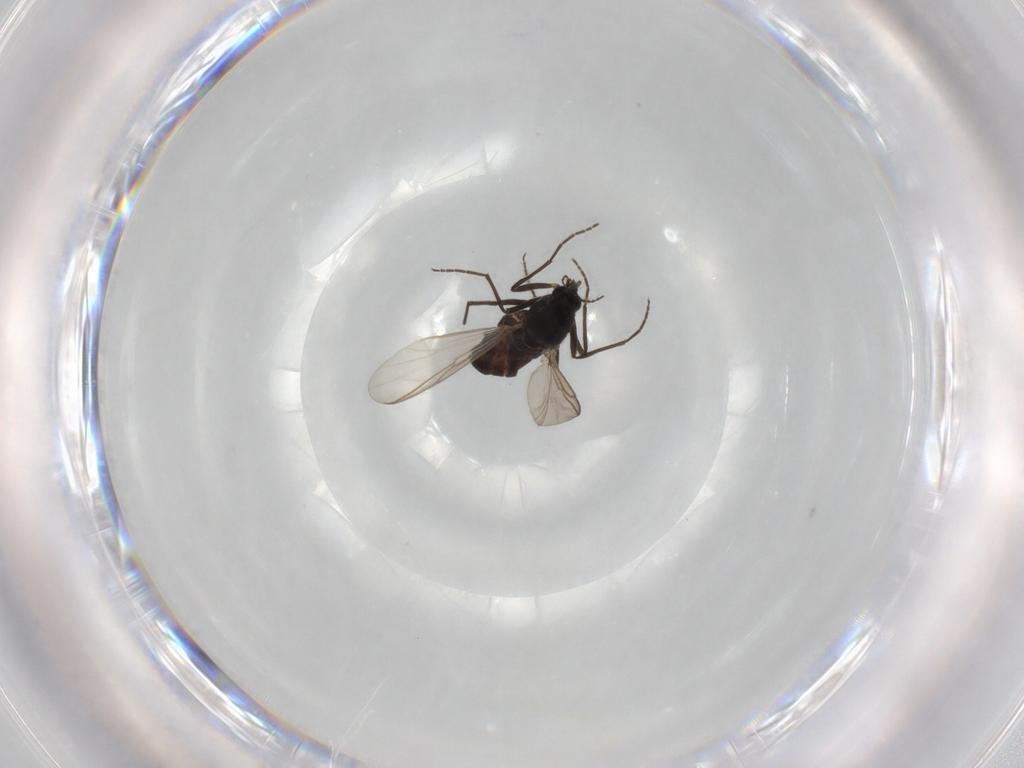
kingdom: Animalia
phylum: Arthropoda
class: Insecta
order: Diptera
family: Chironomidae
